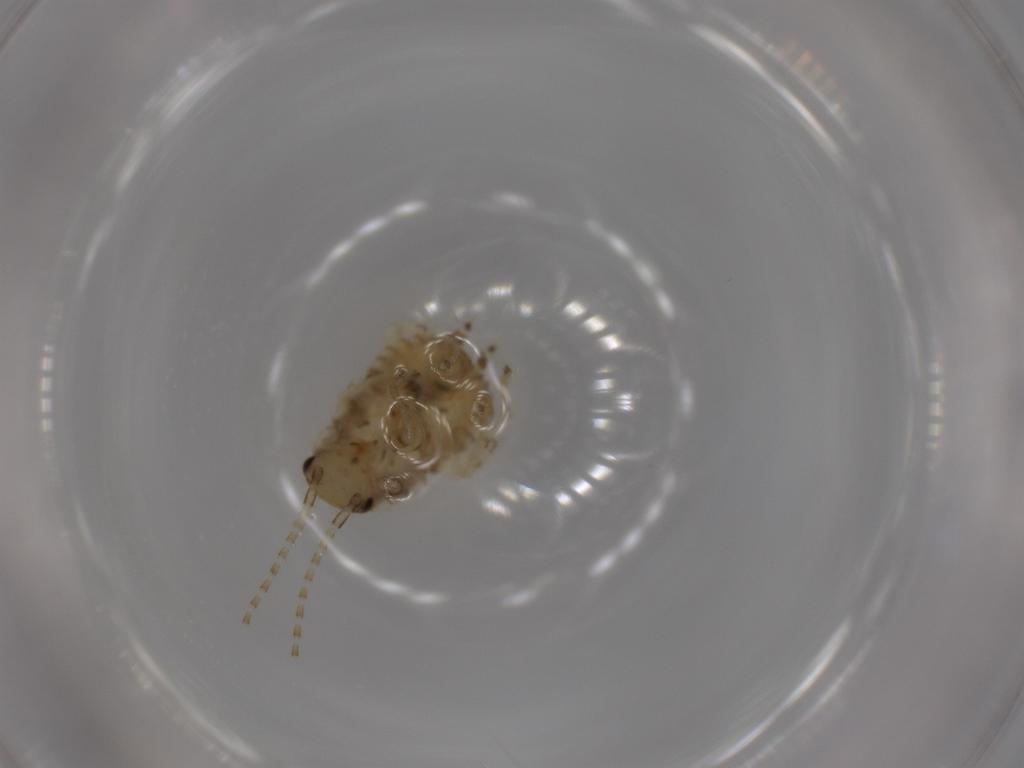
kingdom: Animalia
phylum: Arthropoda
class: Insecta
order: Blattodea
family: Ectobiidae
